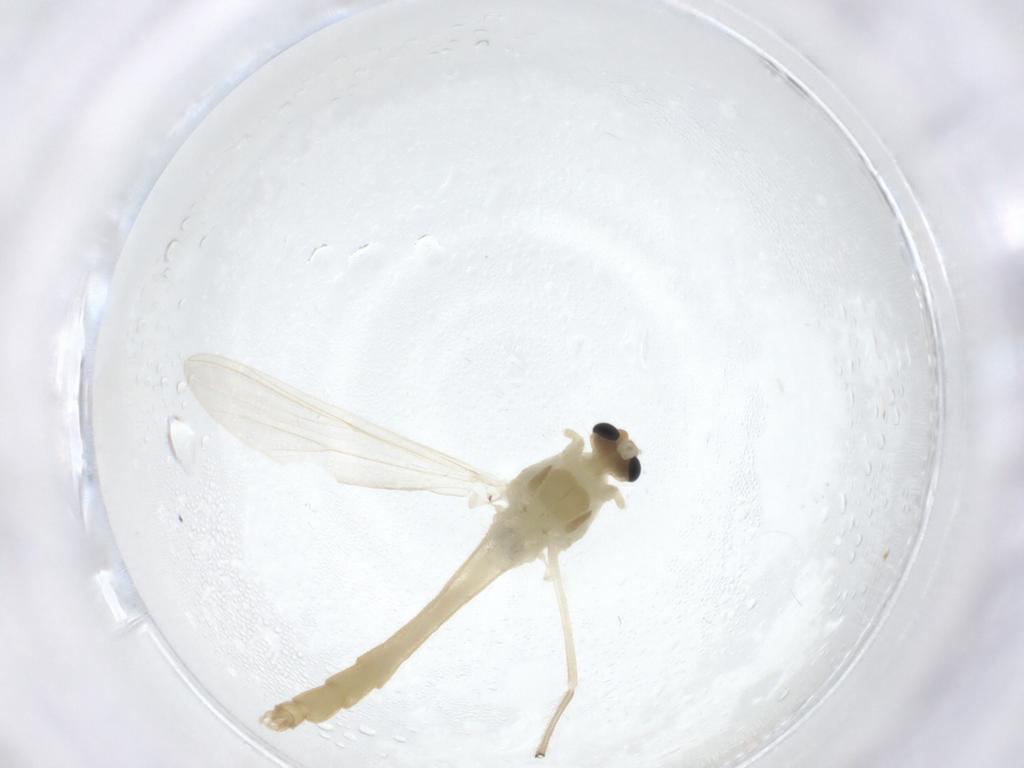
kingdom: Animalia
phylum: Arthropoda
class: Insecta
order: Diptera
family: Chironomidae
